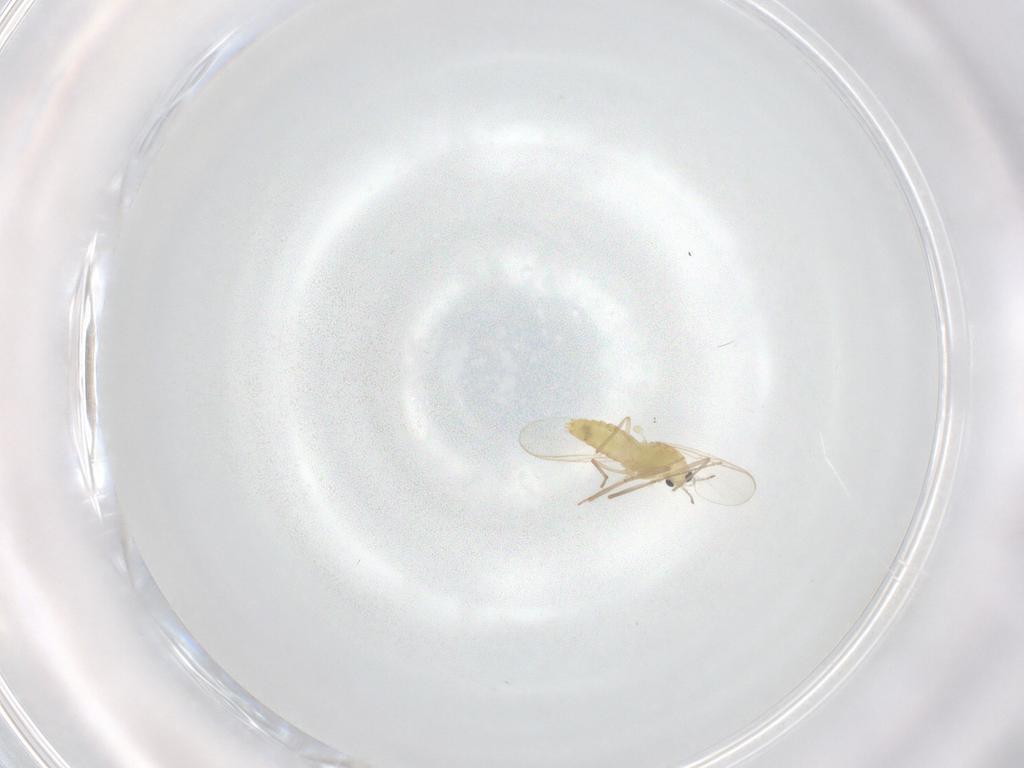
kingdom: Animalia
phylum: Arthropoda
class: Insecta
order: Diptera
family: Chironomidae
